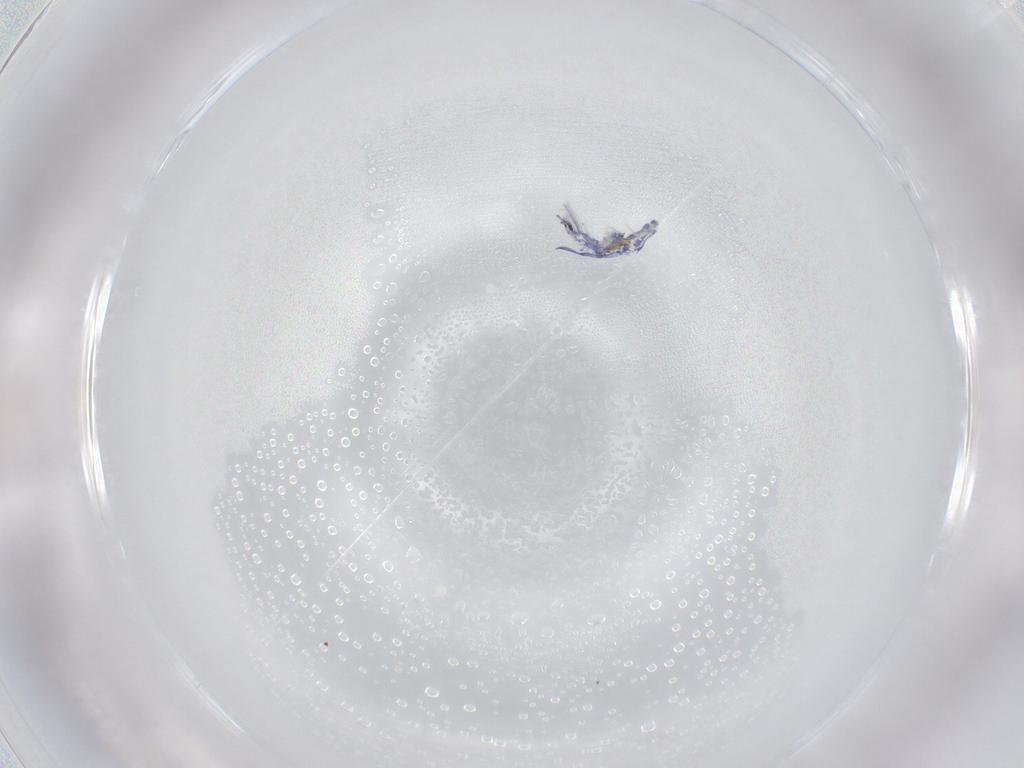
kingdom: Animalia
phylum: Arthropoda
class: Collembola
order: Entomobryomorpha
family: Entomobryidae
